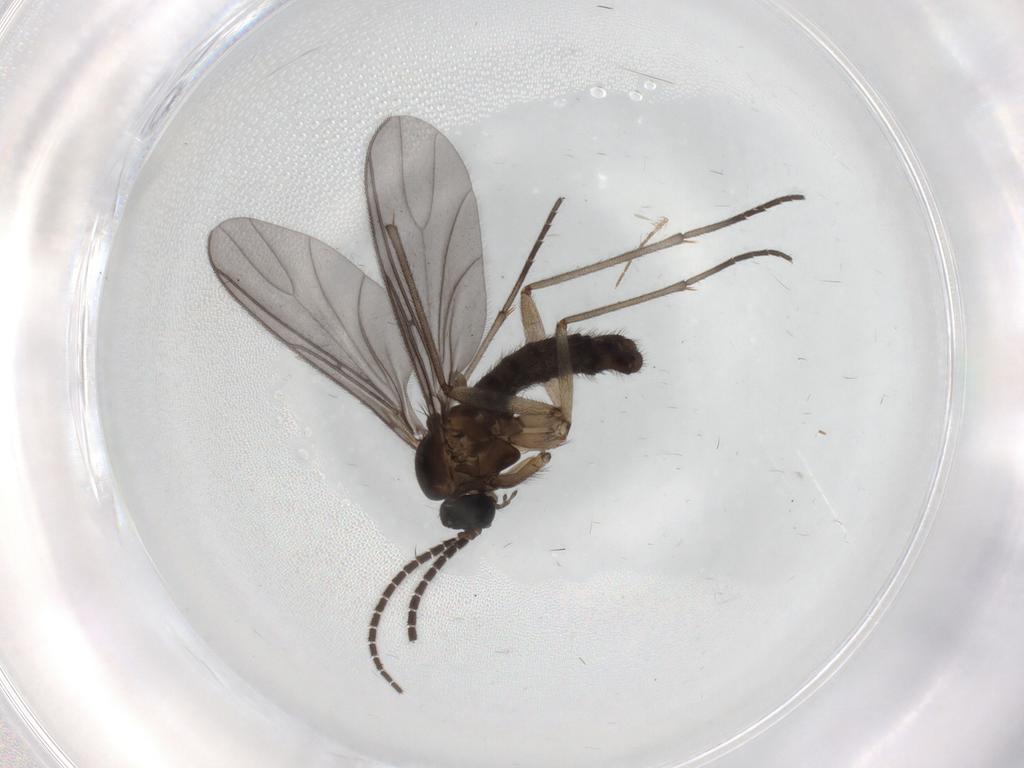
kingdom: Animalia
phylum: Arthropoda
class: Insecta
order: Diptera
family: Sciaridae
